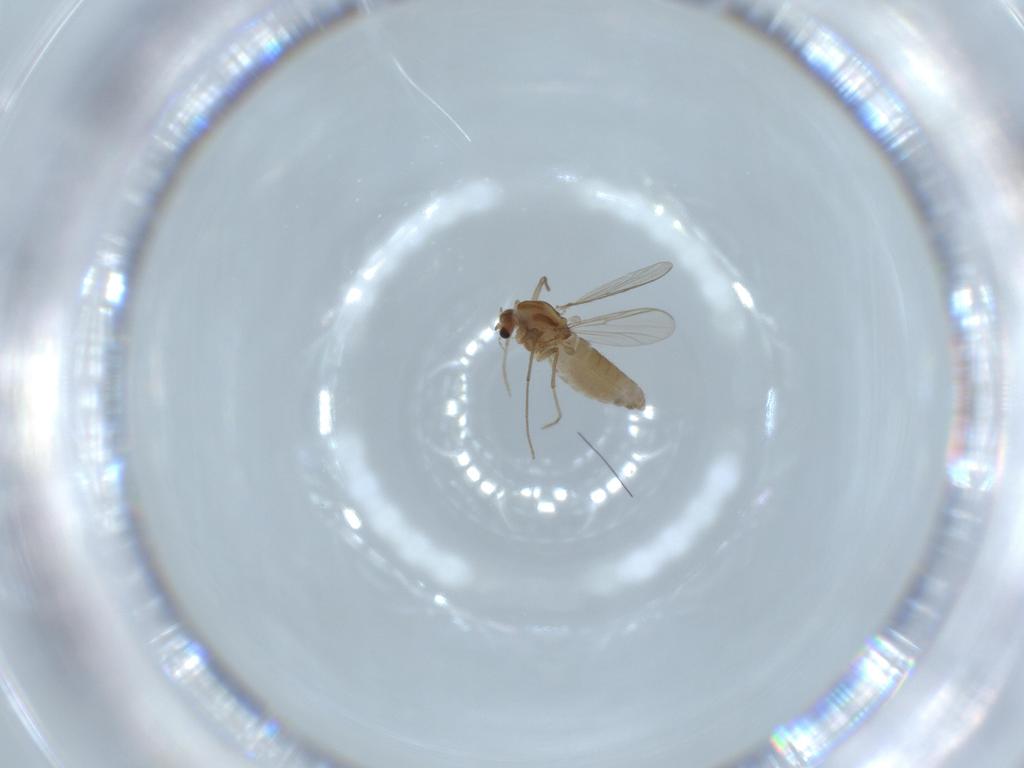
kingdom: Animalia
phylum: Arthropoda
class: Insecta
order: Diptera
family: Chironomidae
